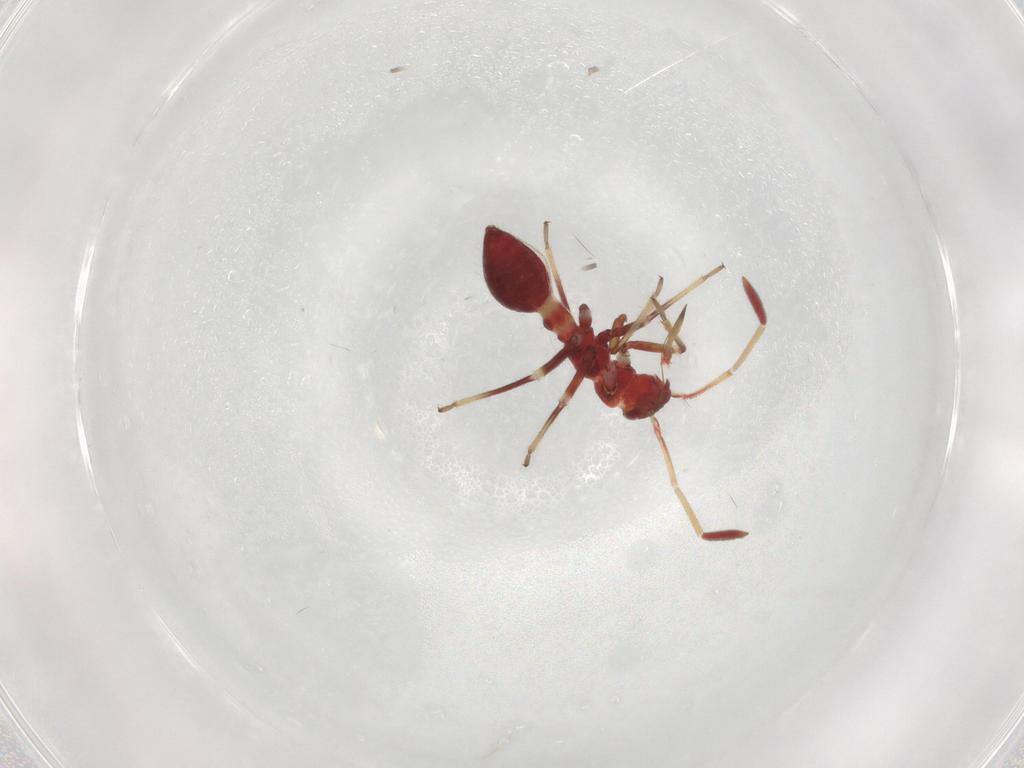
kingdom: Animalia
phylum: Arthropoda
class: Insecta
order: Hemiptera
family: Miridae
